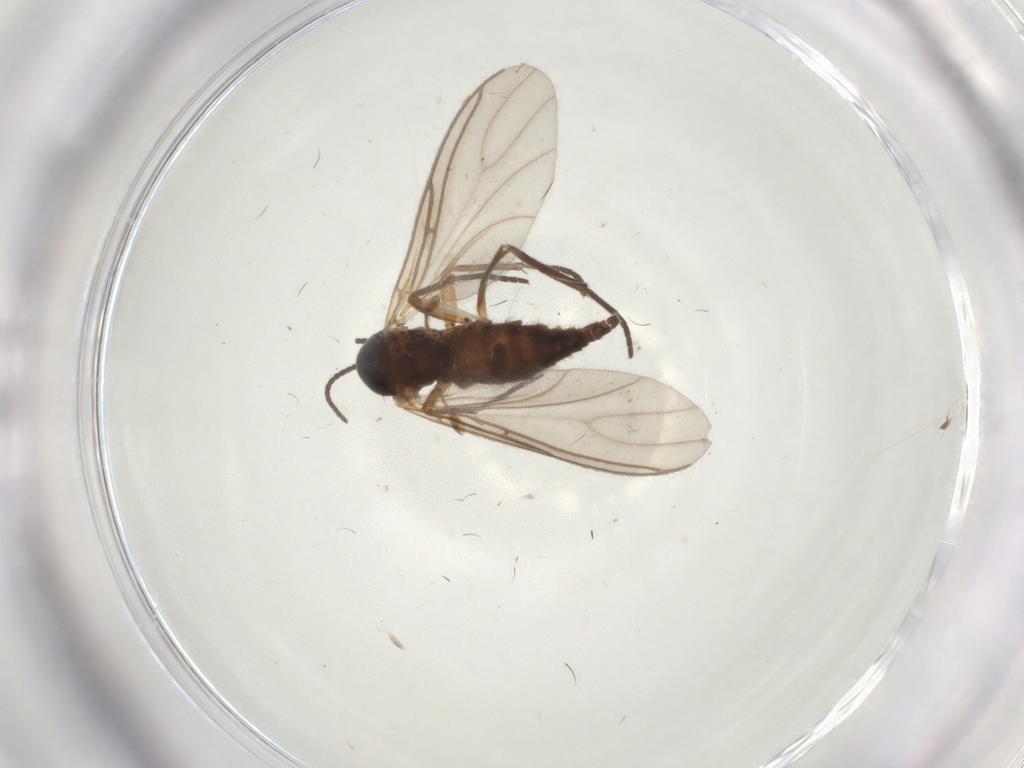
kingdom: Animalia
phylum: Arthropoda
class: Insecta
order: Diptera
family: Sciaridae
